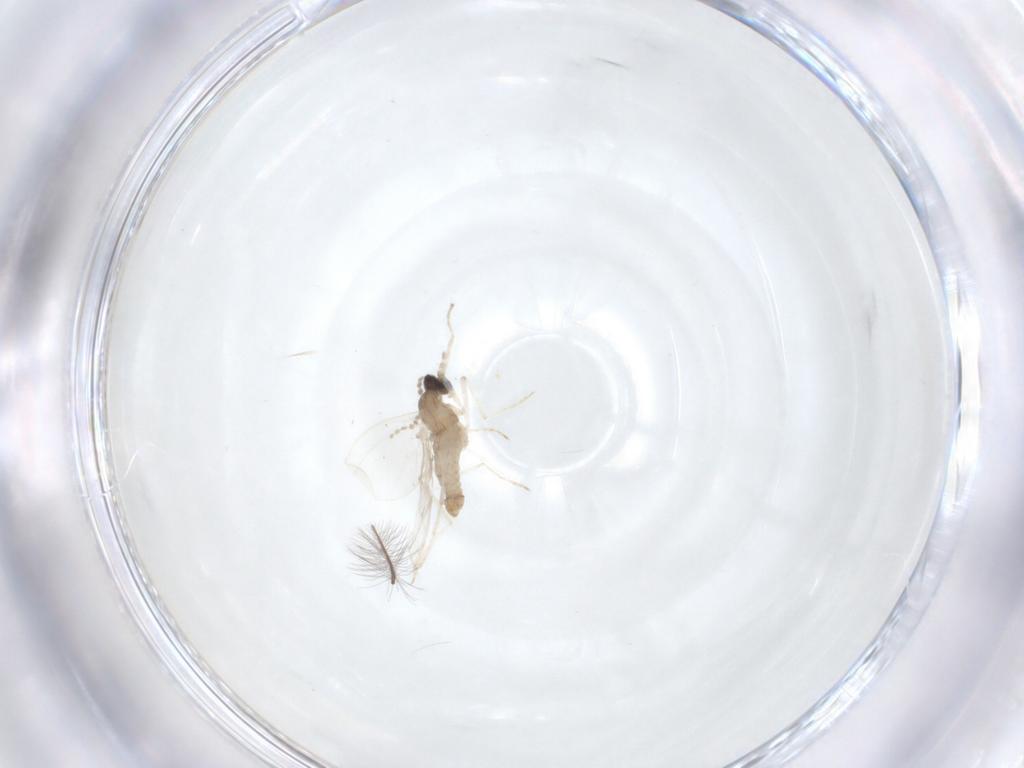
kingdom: Animalia
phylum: Arthropoda
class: Insecta
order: Diptera
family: Cecidomyiidae
